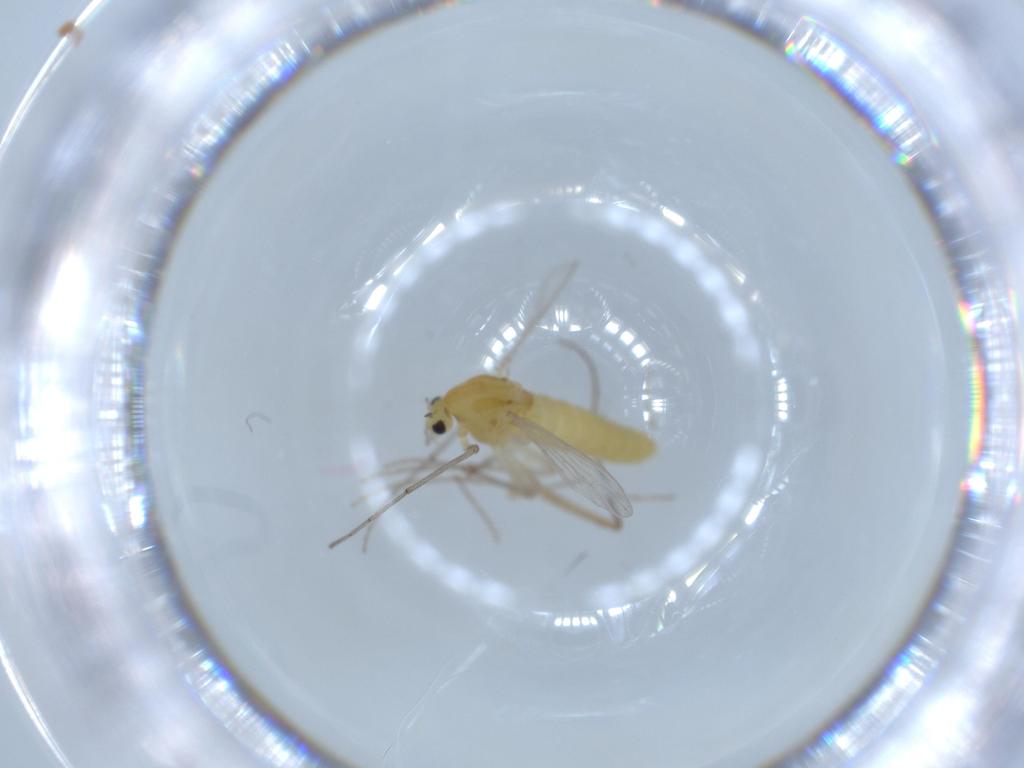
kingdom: Animalia
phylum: Arthropoda
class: Insecta
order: Diptera
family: Chironomidae
